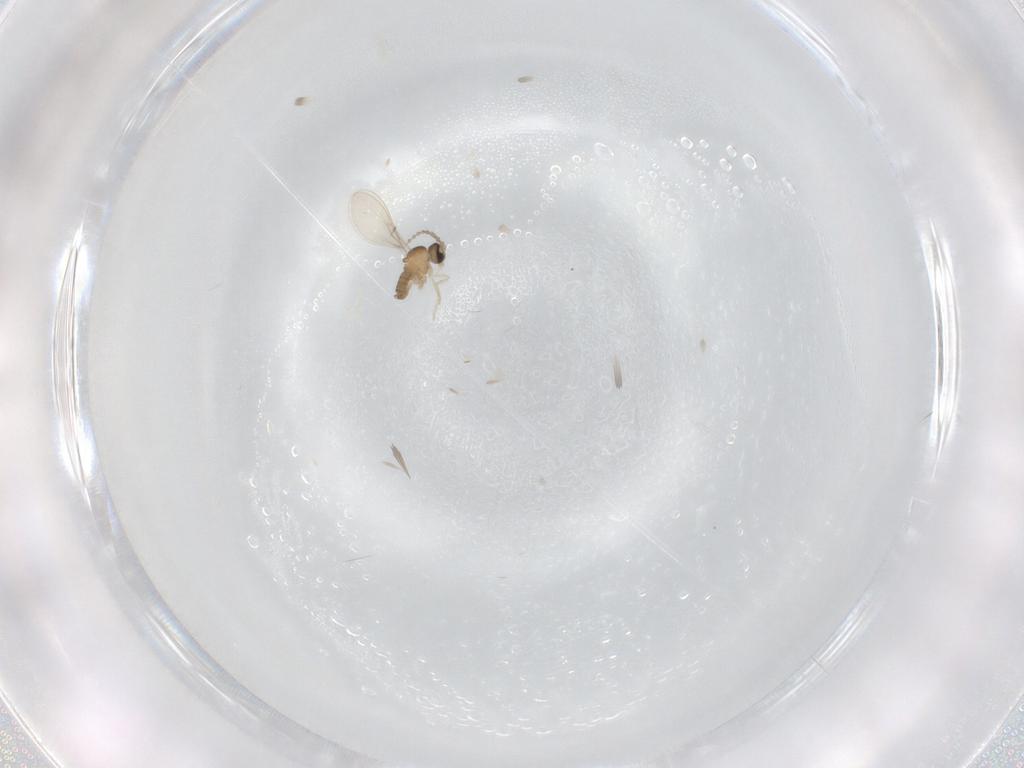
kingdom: Animalia
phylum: Arthropoda
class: Insecta
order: Diptera
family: Cecidomyiidae
